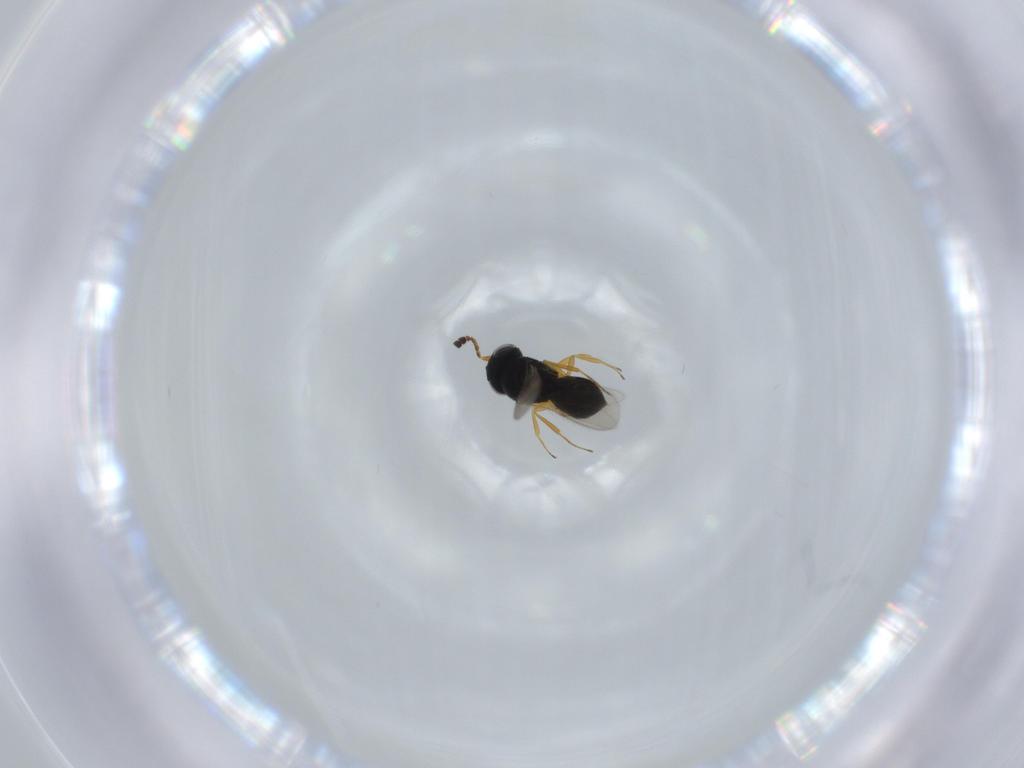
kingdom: Animalia
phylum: Arthropoda
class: Insecta
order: Hymenoptera
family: Scelionidae
